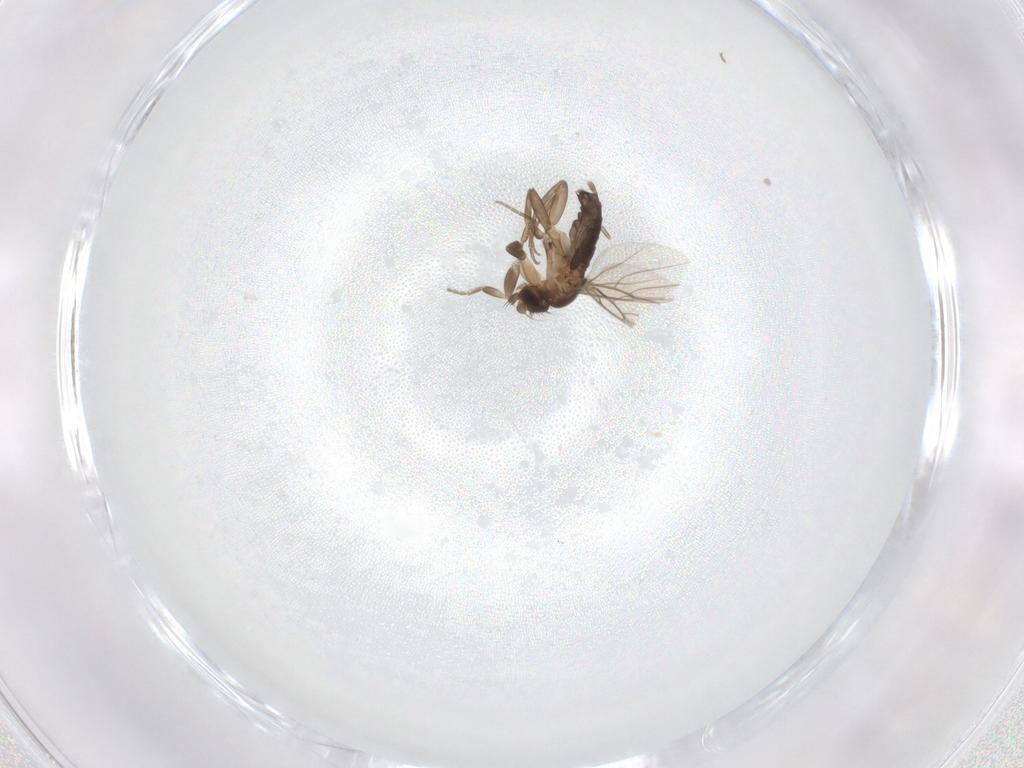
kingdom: Animalia
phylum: Arthropoda
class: Insecta
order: Diptera
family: Phoridae
